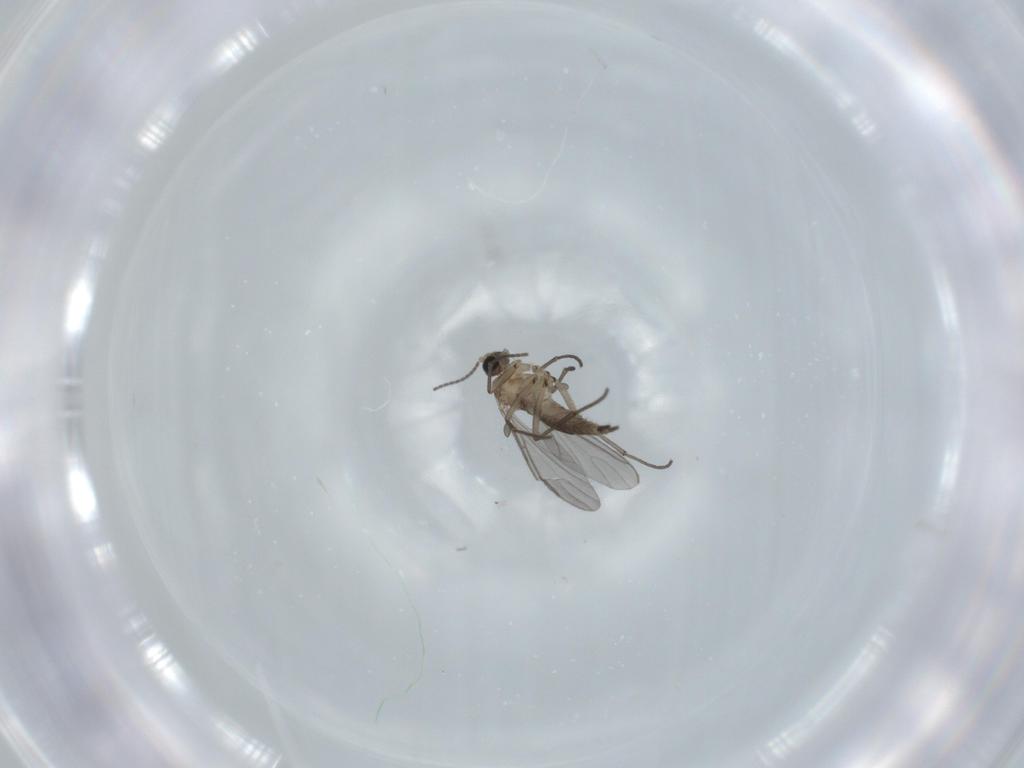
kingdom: Animalia
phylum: Arthropoda
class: Insecta
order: Diptera
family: Sciaridae
